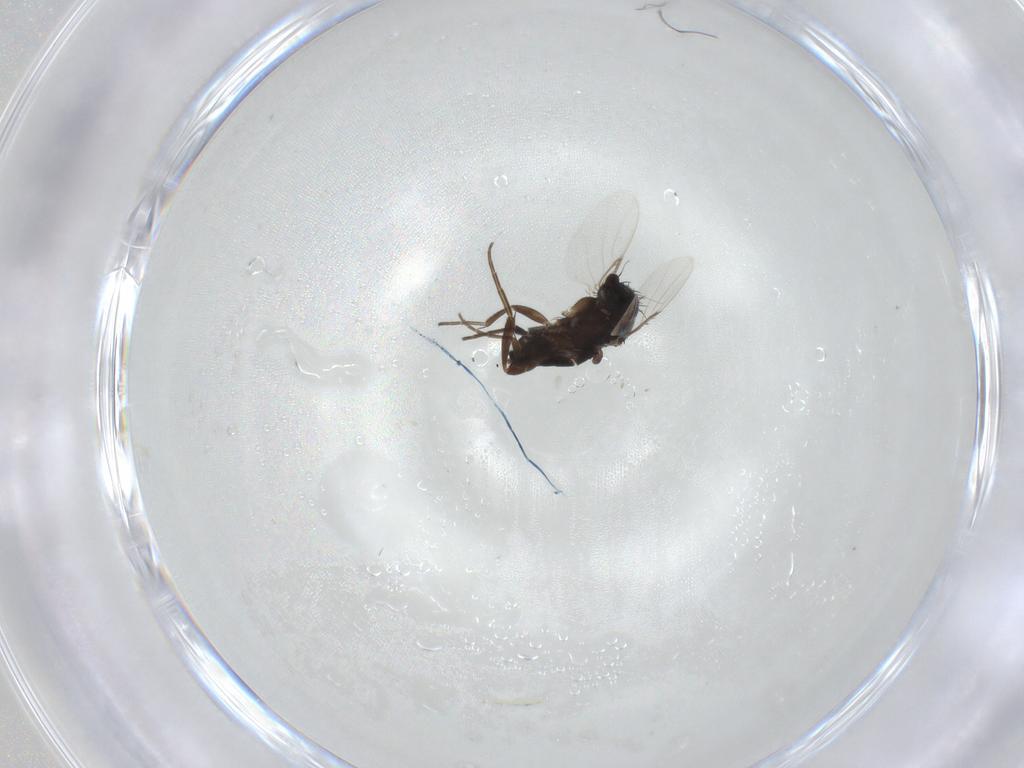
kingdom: Animalia
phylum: Arthropoda
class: Insecta
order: Diptera
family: Phoridae
